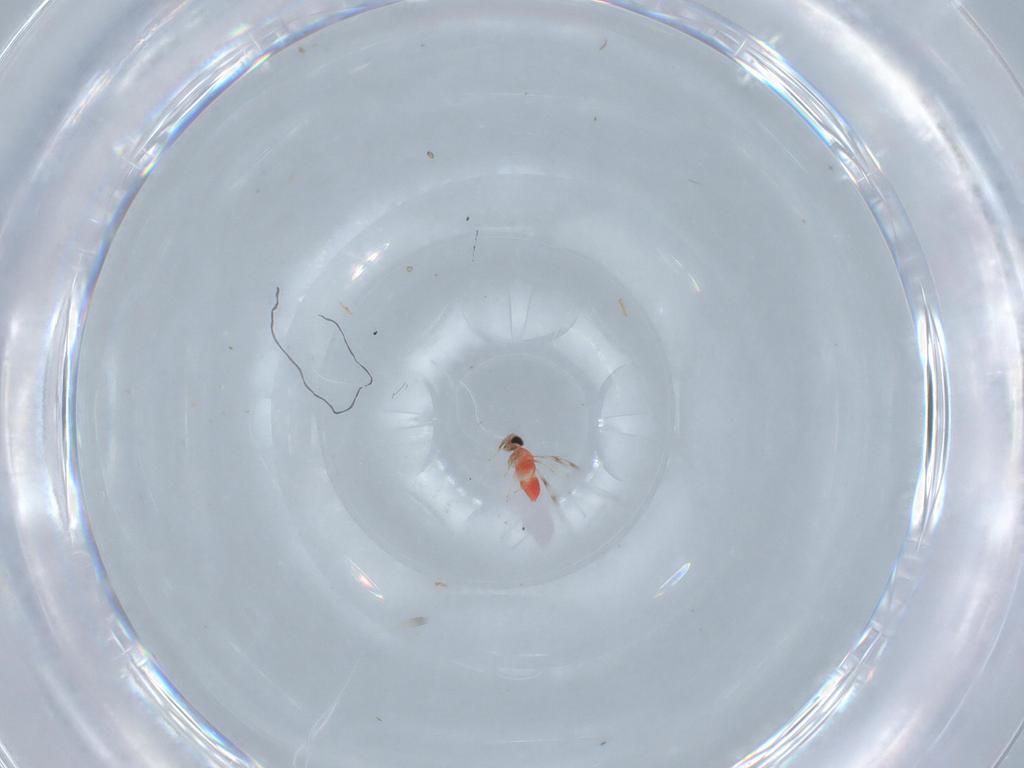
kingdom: Animalia
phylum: Arthropoda
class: Insecta
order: Hymenoptera
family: Trichogrammatidae
